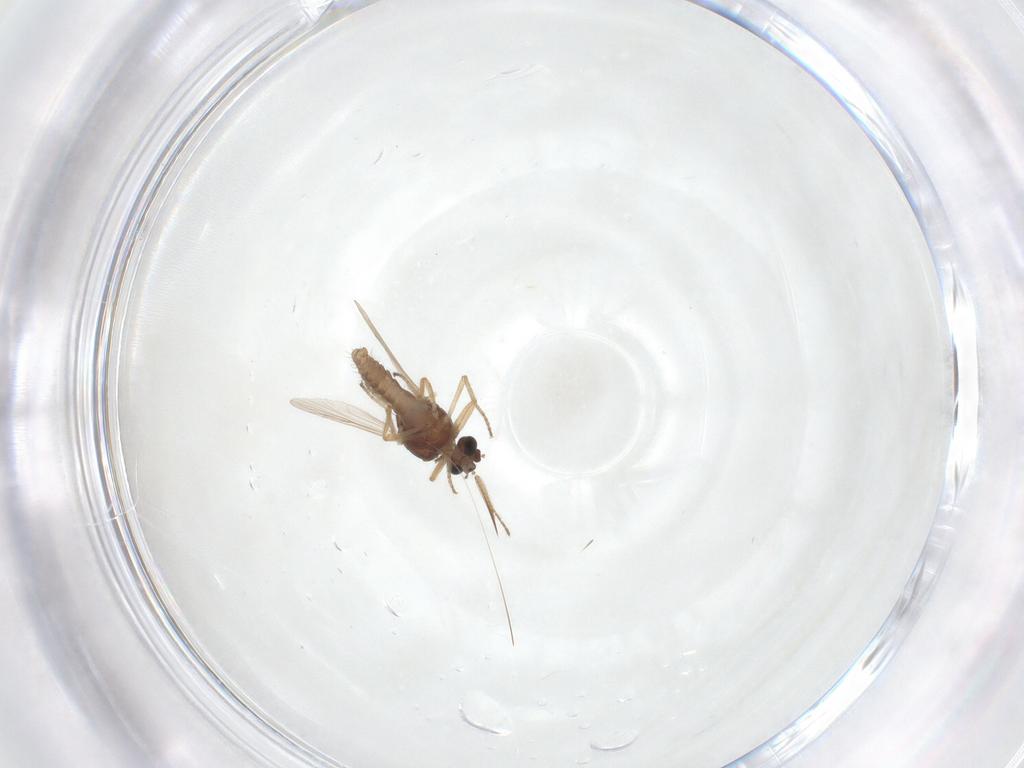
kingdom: Animalia
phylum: Arthropoda
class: Insecta
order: Diptera
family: Ceratopogonidae
